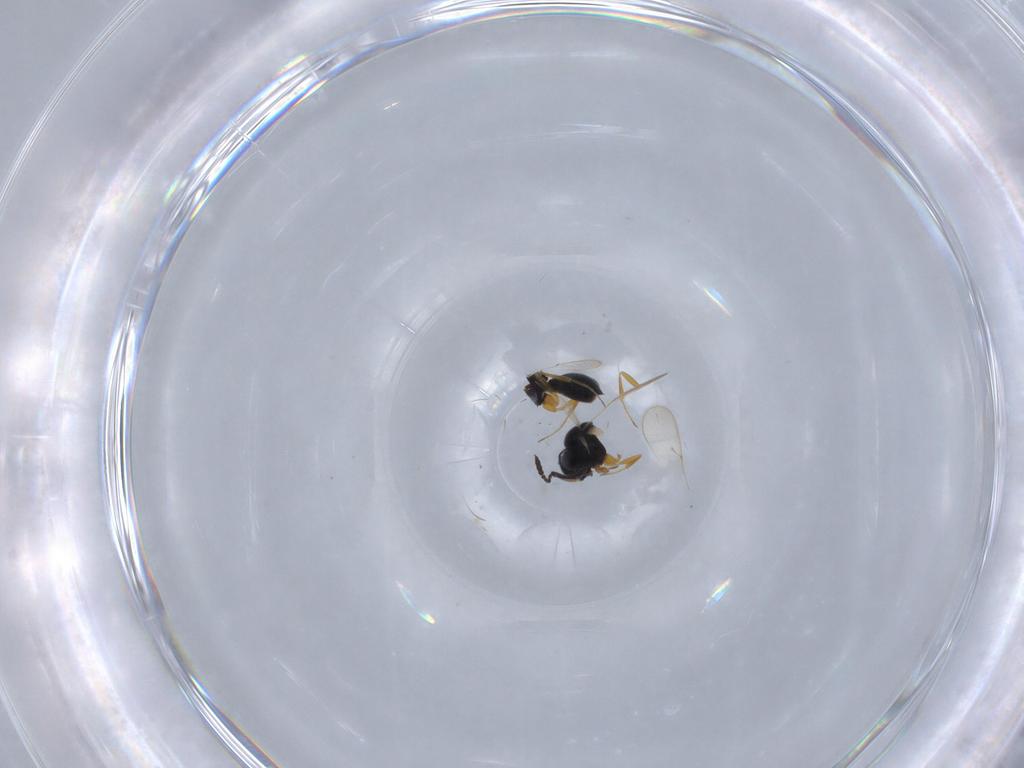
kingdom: Animalia
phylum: Arthropoda
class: Insecta
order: Hymenoptera
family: Scelionidae
